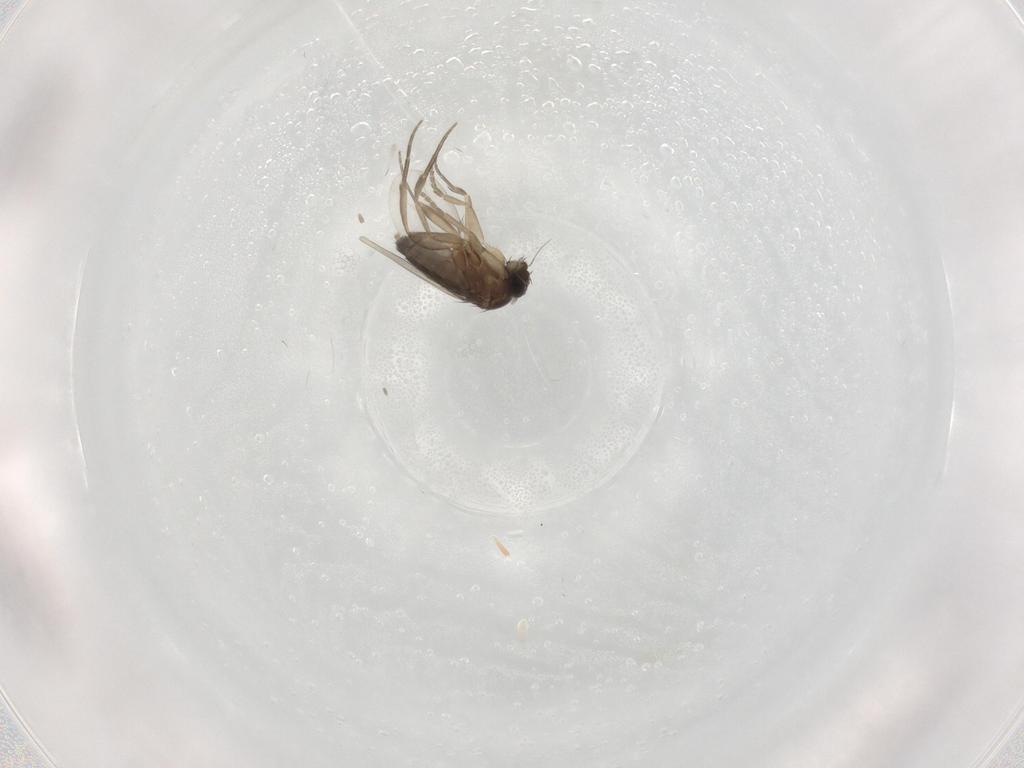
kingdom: Animalia
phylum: Arthropoda
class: Insecta
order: Diptera
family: Phoridae
